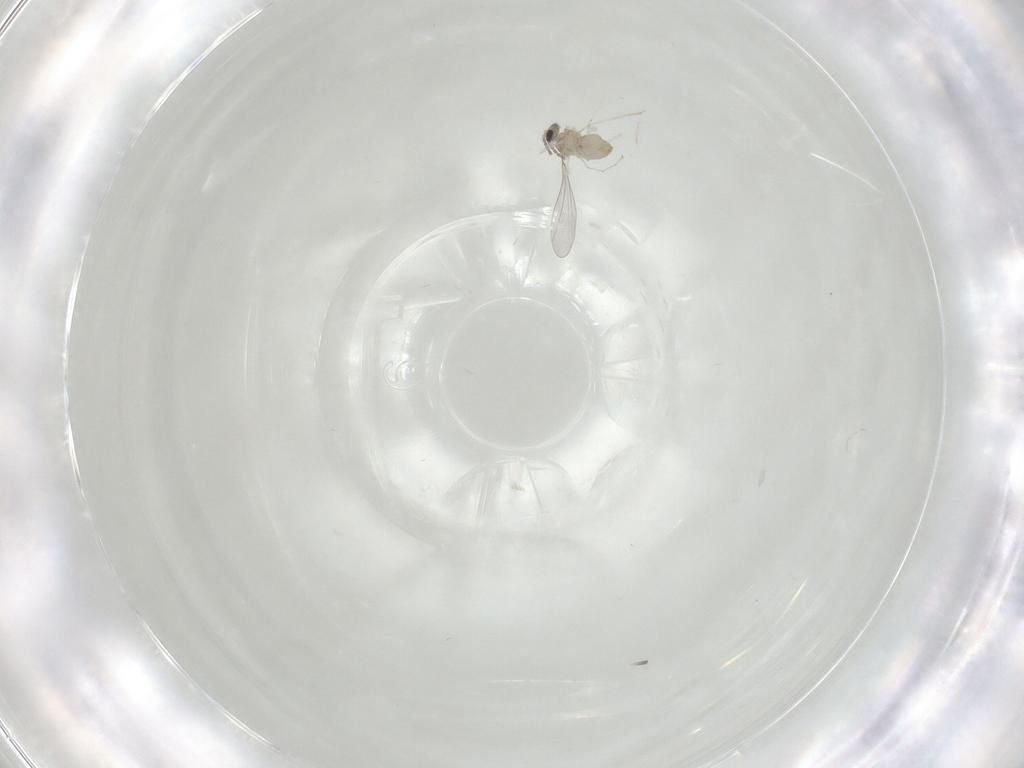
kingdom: Animalia
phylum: Arthropoda
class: Insecta
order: Diptera
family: Cecidomyiidae
